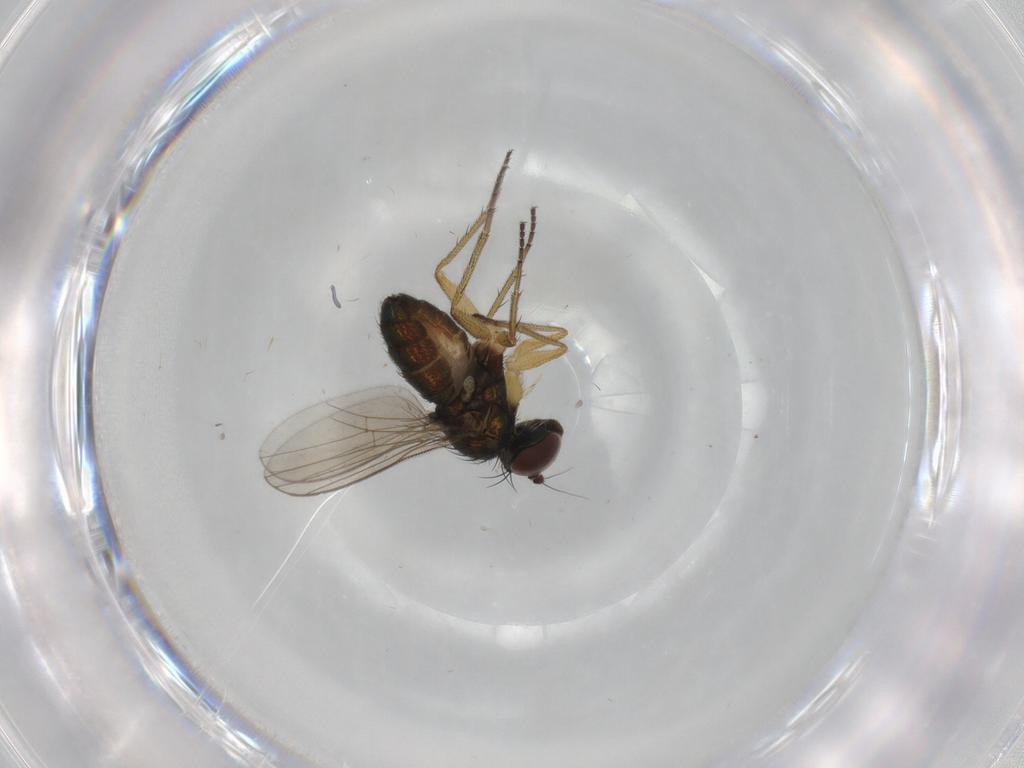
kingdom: Animalia
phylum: Arthropoda
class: Insecta
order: Diptera
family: Dolichopodidae
